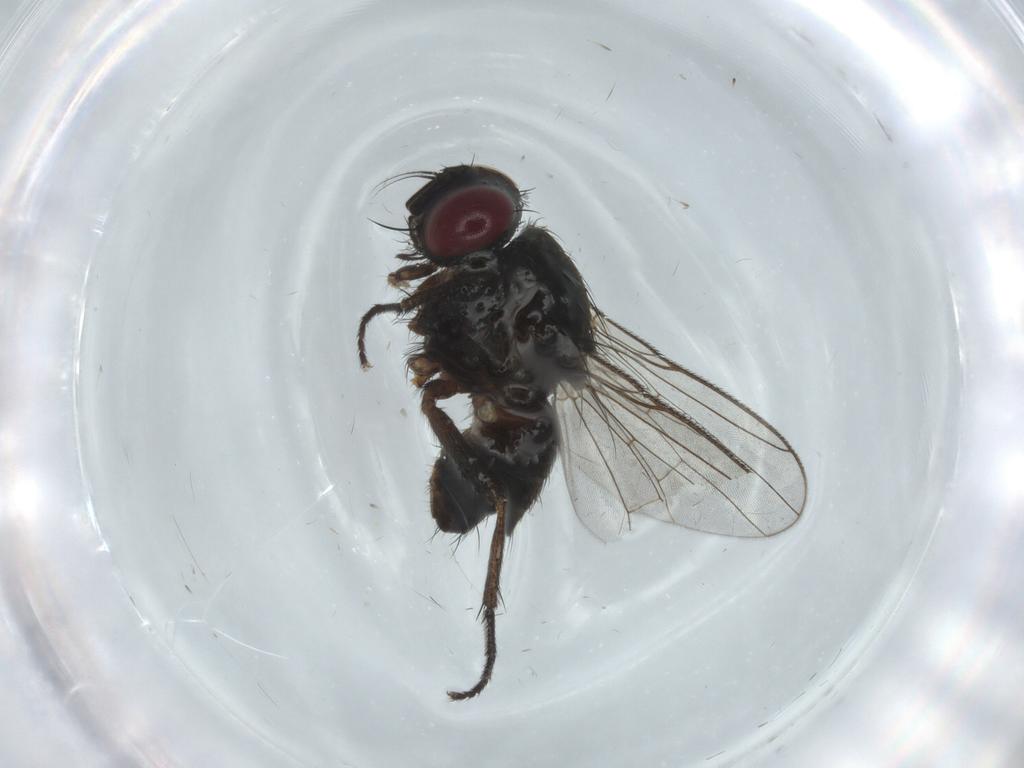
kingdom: Animalia
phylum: Arthropoda
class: Insecta
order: Diptera
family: Muscidae
